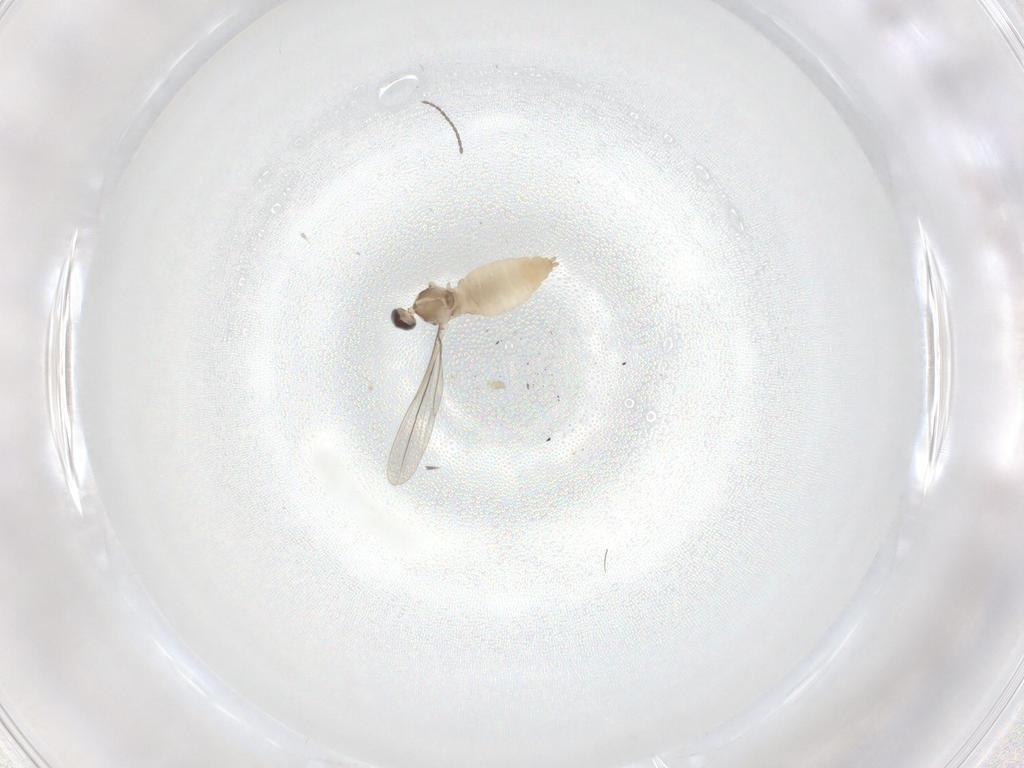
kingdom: Animalia
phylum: Arthropoda
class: Insecta
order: Diptera
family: Cecidomyiidae
